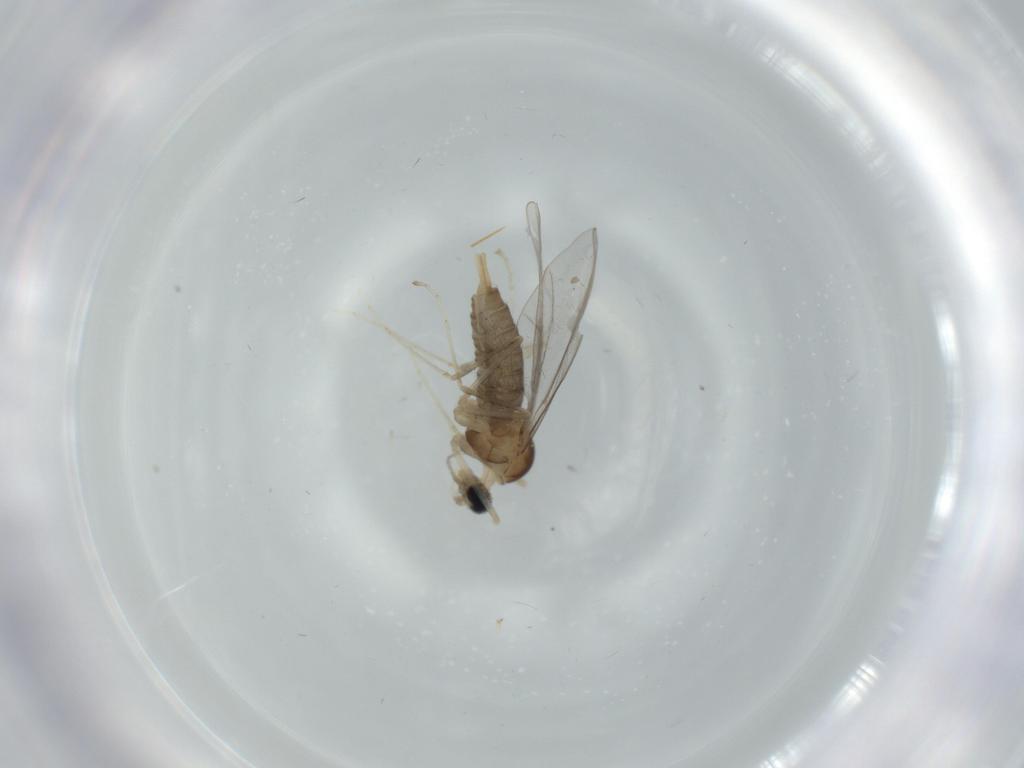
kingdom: Animalia
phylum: Arthropoda
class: Insecta
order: Diptera
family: Cecidomyiidae
